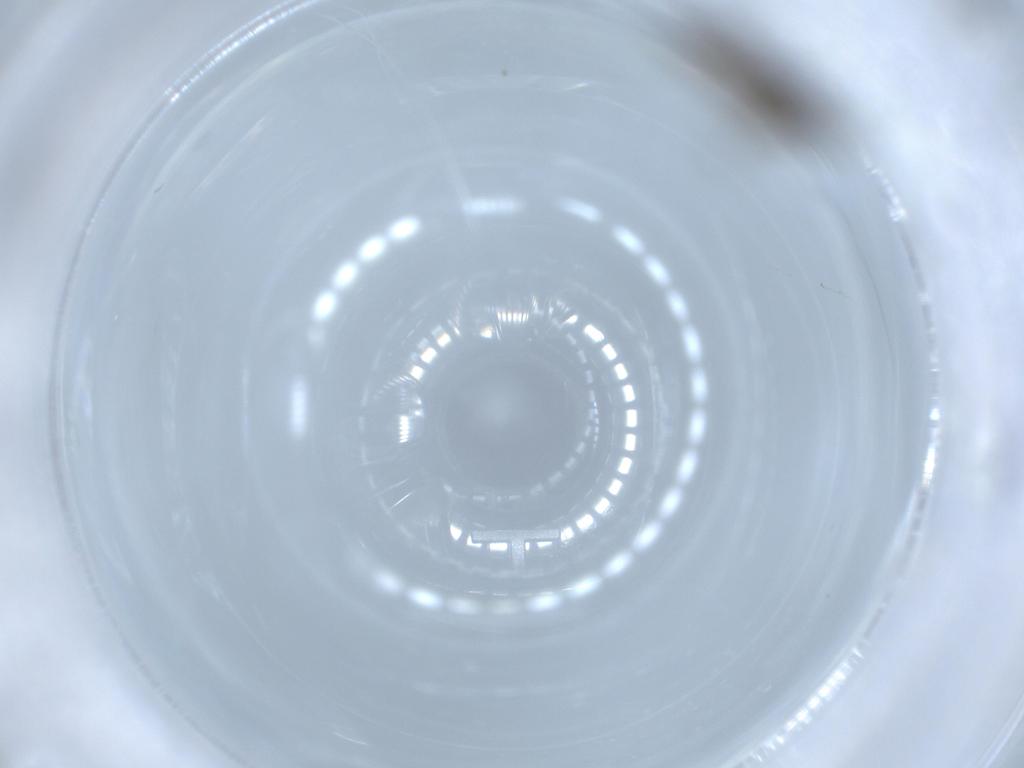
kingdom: Animalia
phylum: Arthropoda
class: Insecta
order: Diptera
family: Chloropidae
